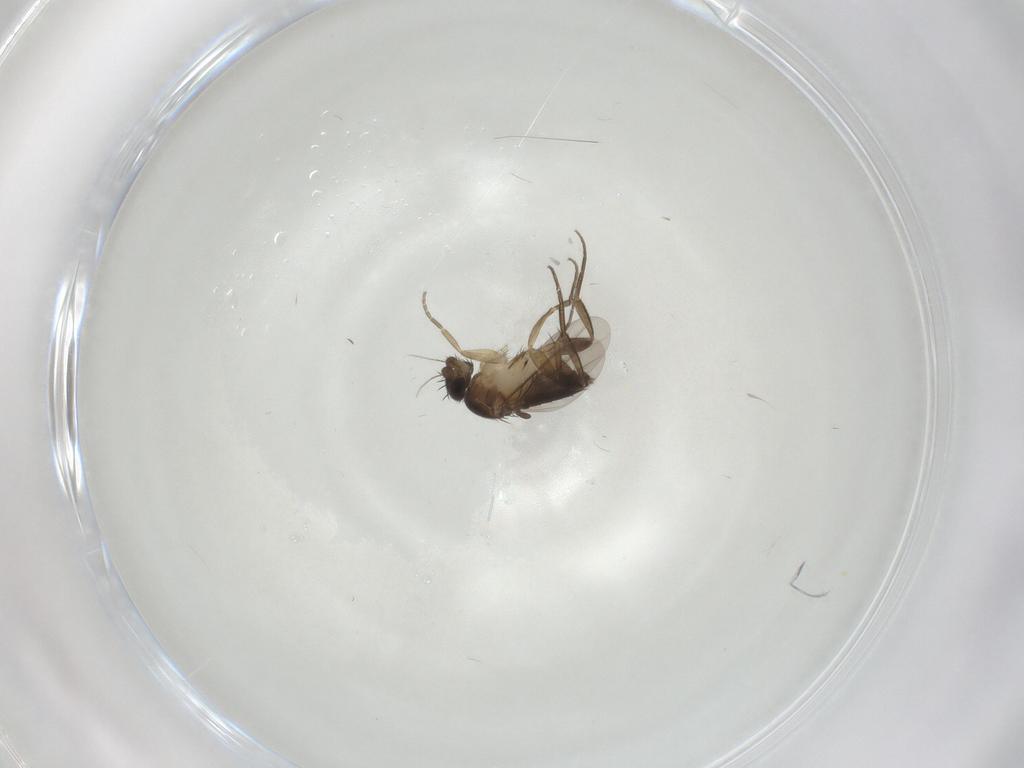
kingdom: Animalia
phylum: Arthropoda
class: Insecta
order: Diptera
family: Phoridae
